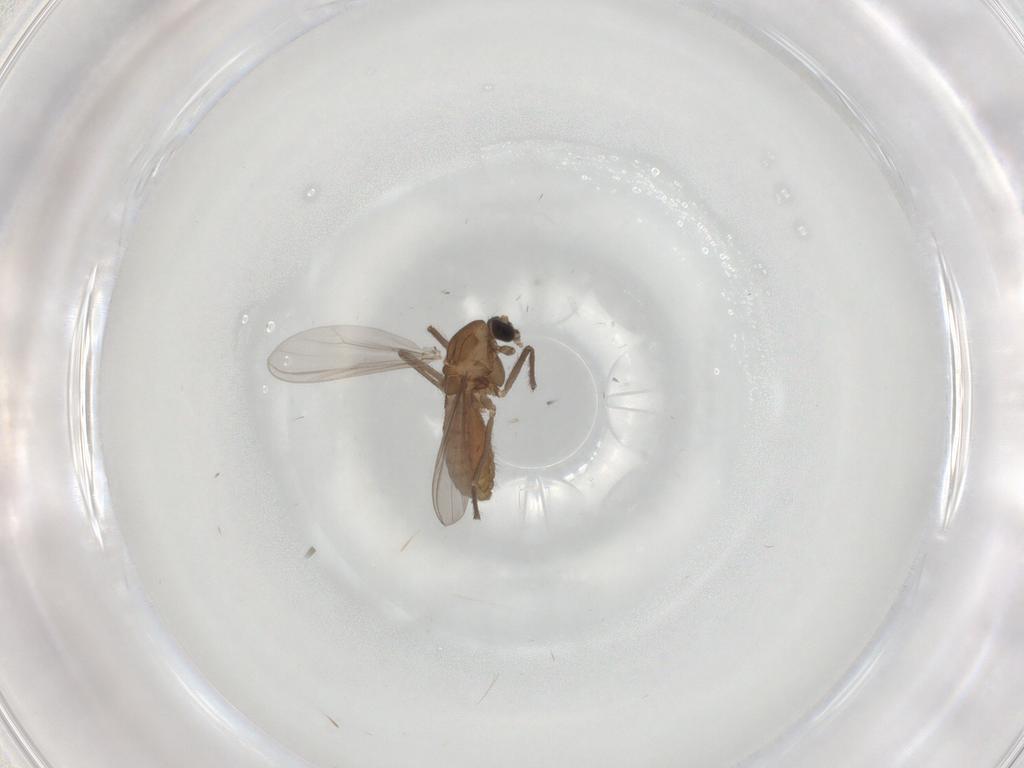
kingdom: Animalia
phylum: Arthropoda
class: Insecta
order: Diptera
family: Chironomidae
